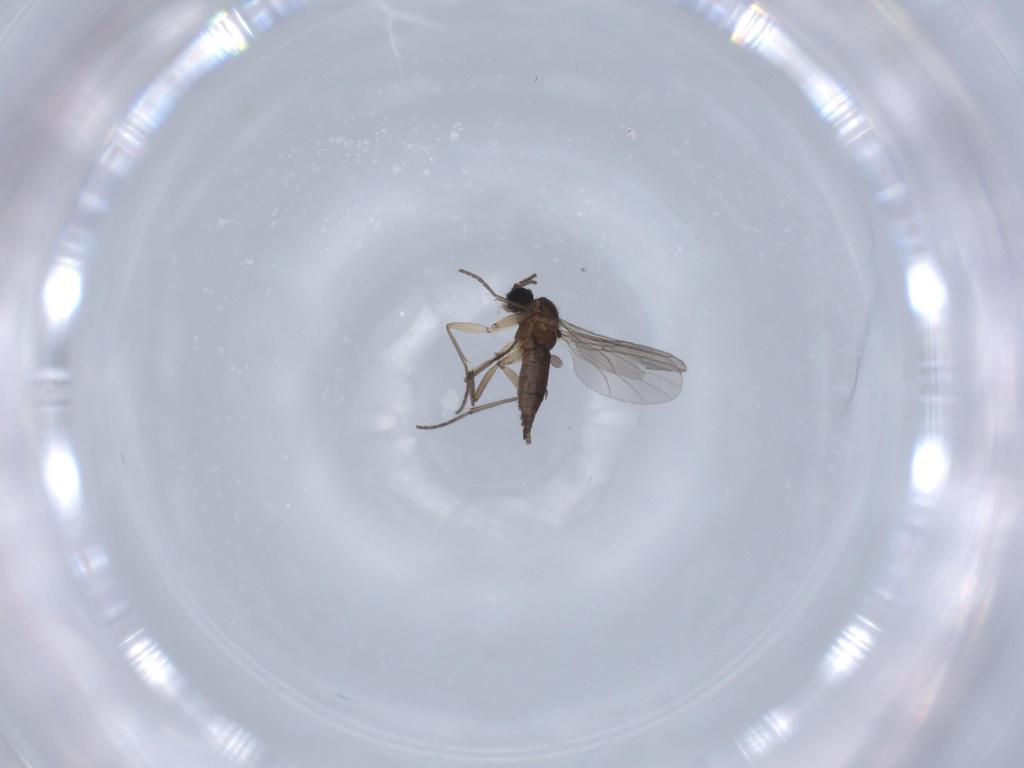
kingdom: Animalia
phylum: Arthropoda
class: Insecta
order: Diptera
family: Sciaridae
